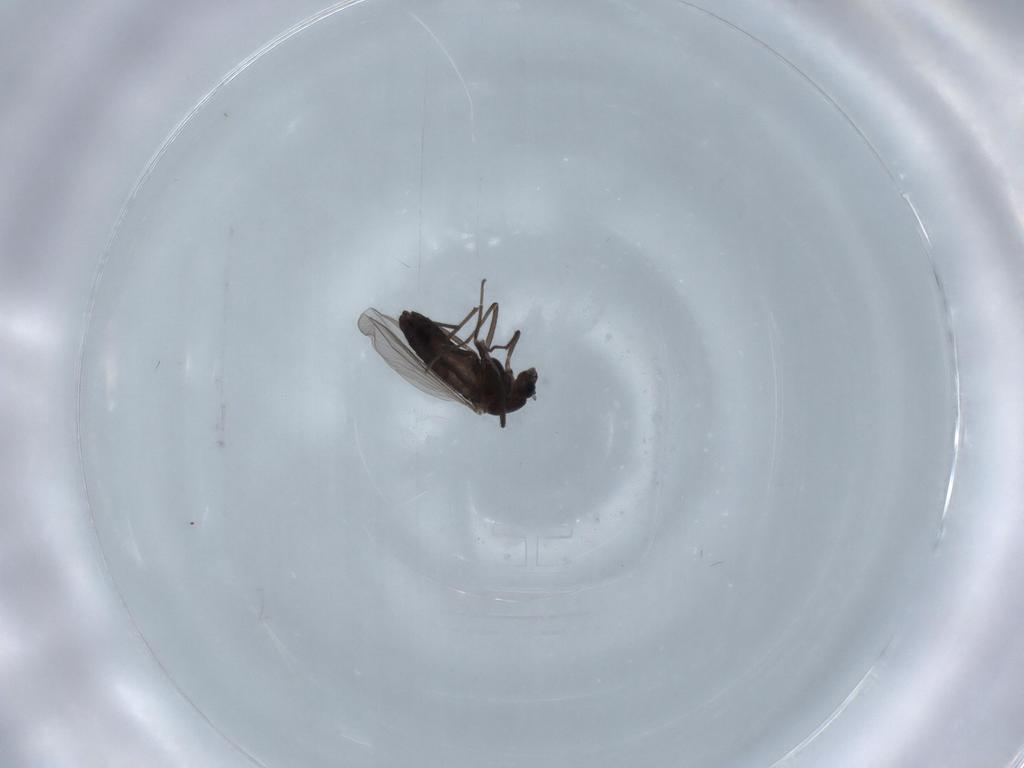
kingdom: Animalia
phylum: Arthropoda
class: Insecta
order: Diptera
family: Chironomidae
